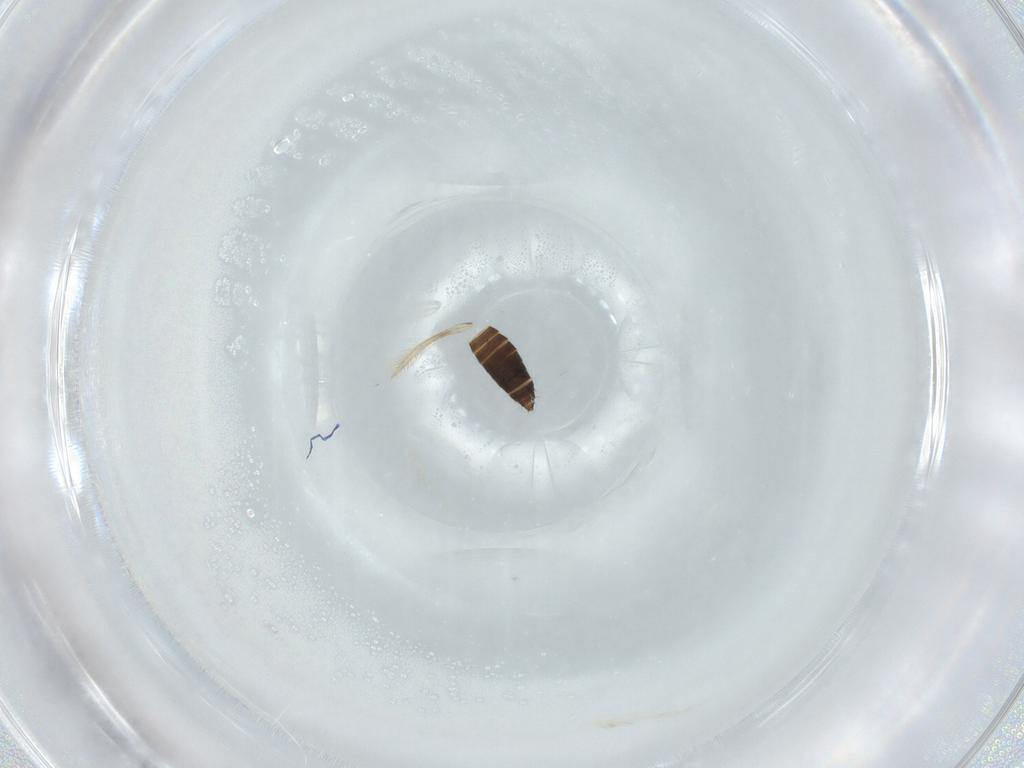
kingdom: Animalia
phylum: Arthropoda
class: Insecta
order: Thysanoptera
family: Thripidae
